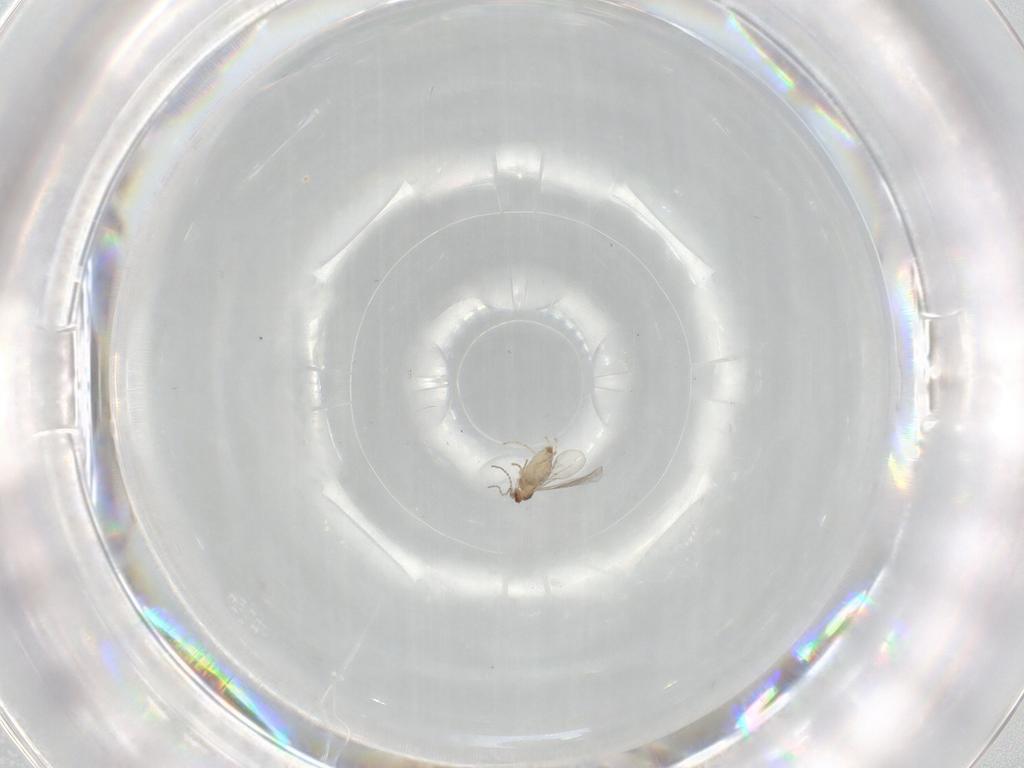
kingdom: Animalia
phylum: Arthropoda
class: Insecta
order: Diptera
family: Cecidomyiidae
